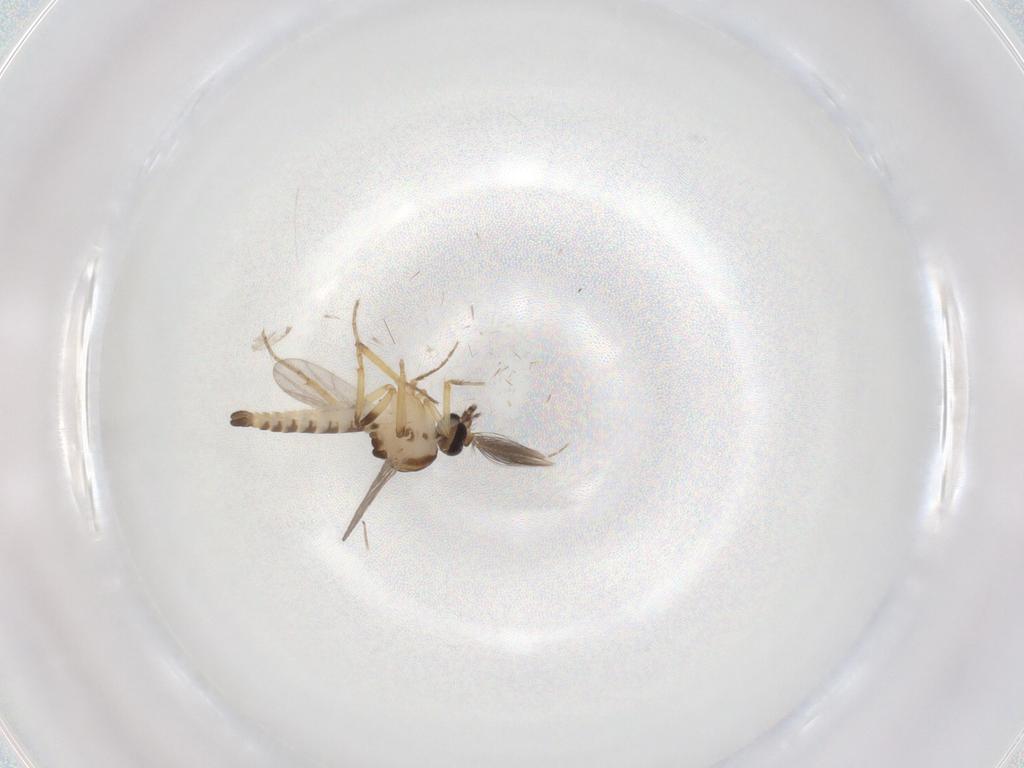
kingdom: Animalia
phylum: Arthropoda
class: Insecta
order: Diptera
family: Ceratopogonidae
